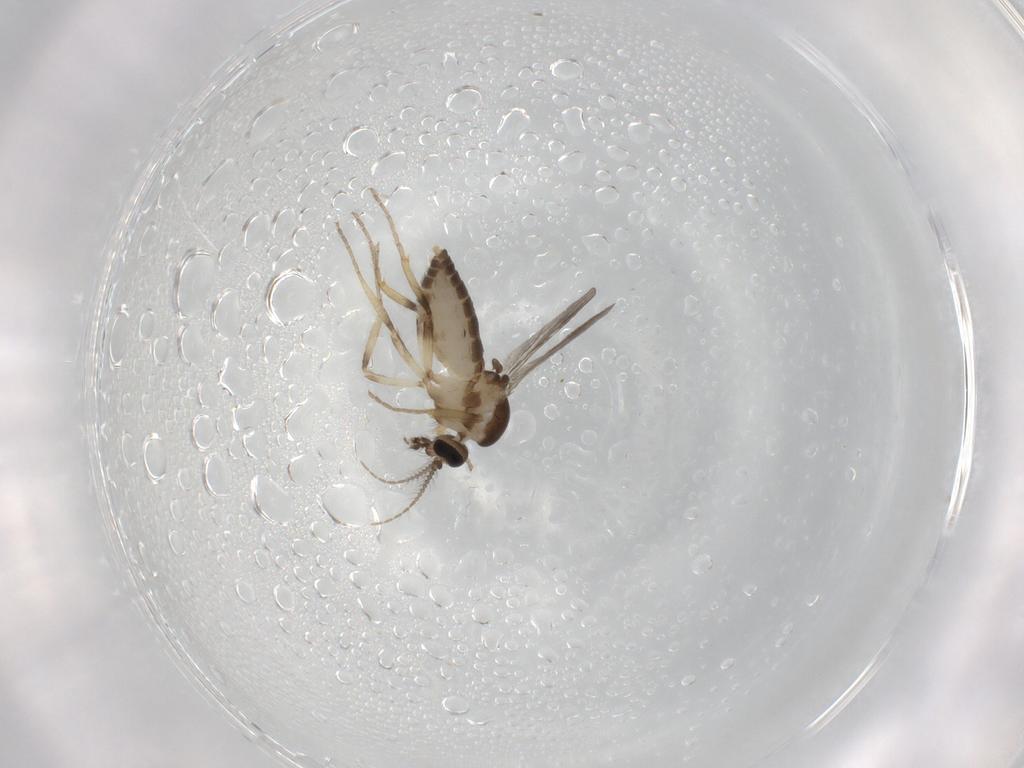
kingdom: Animalia
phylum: Arthropoda
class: Insecta
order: Diptera
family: Ceratopogonidae
